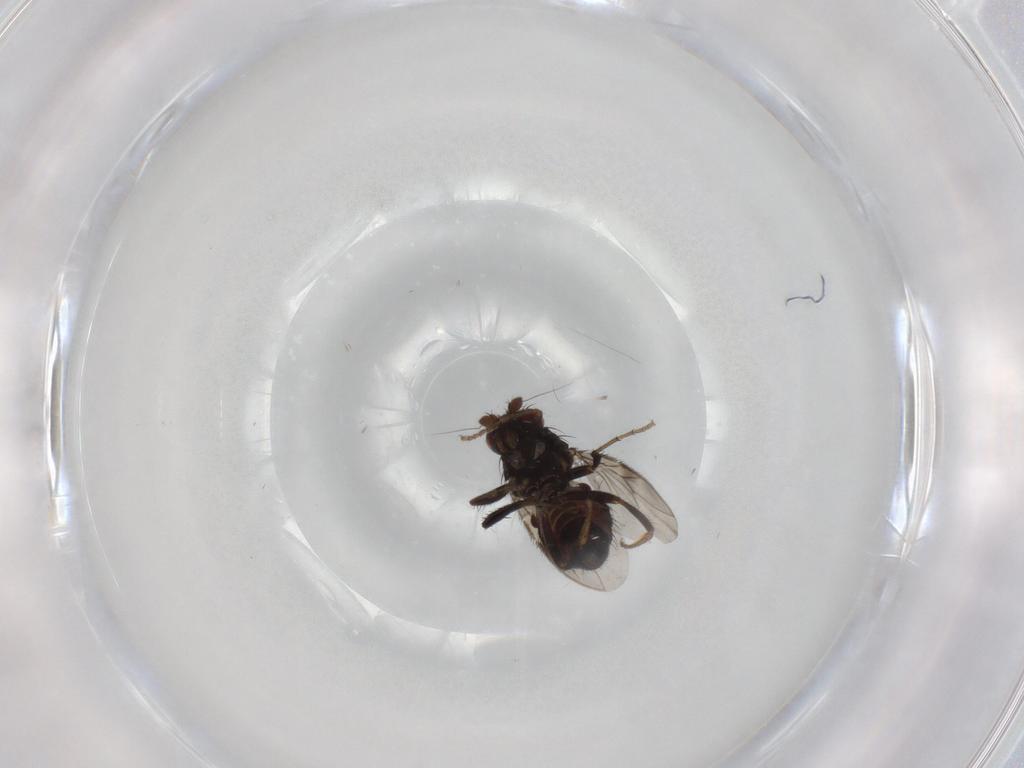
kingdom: Animalia
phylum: Arthropoda
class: Insecta
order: Diptera
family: Sphaeroceridae
